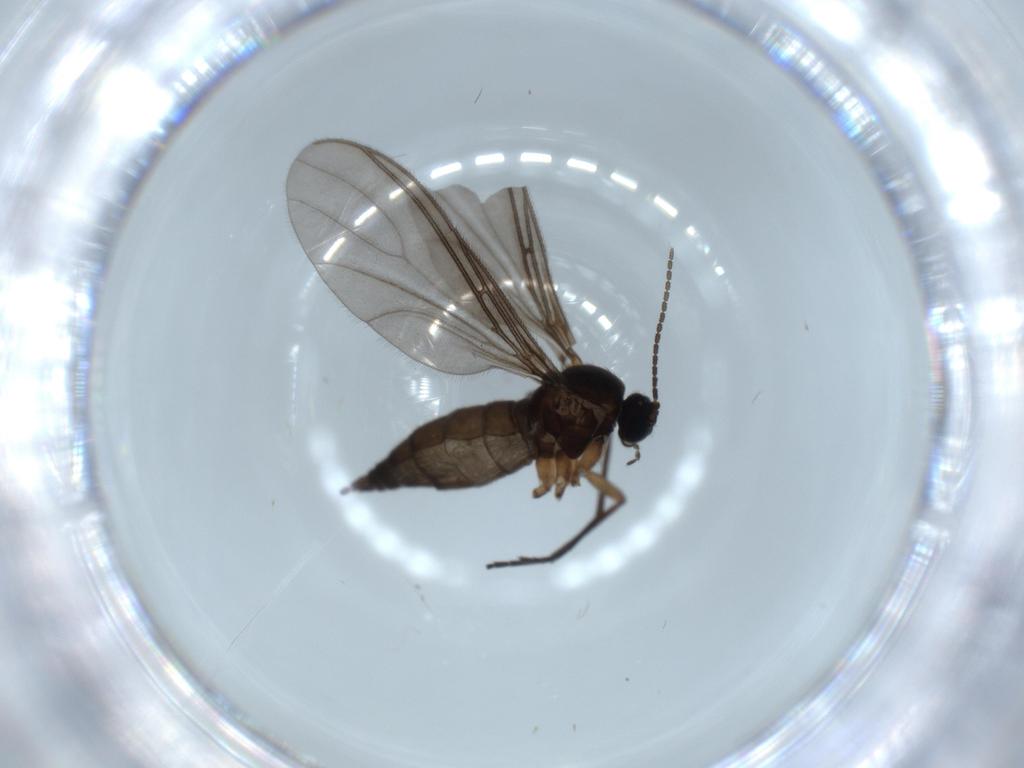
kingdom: Animalia
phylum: Arthropoda
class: Insecta
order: Diptera
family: Sciaridae
